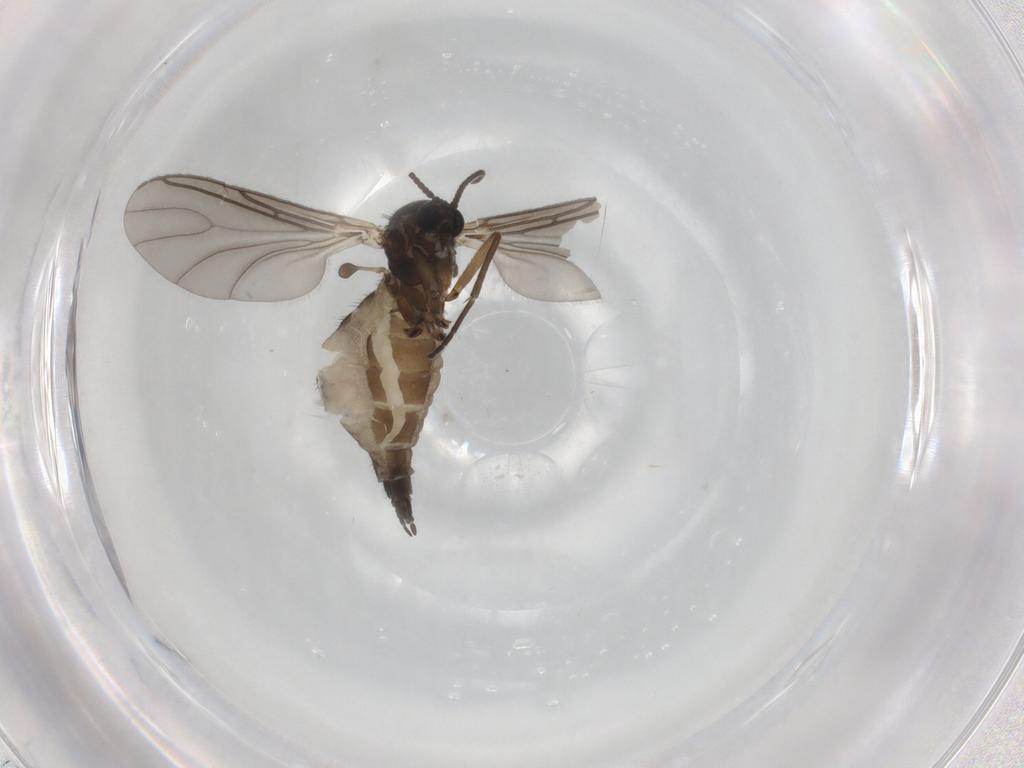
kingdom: Animalia
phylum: Arthropoda
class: Insecta
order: Diptera
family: Sciaridae
